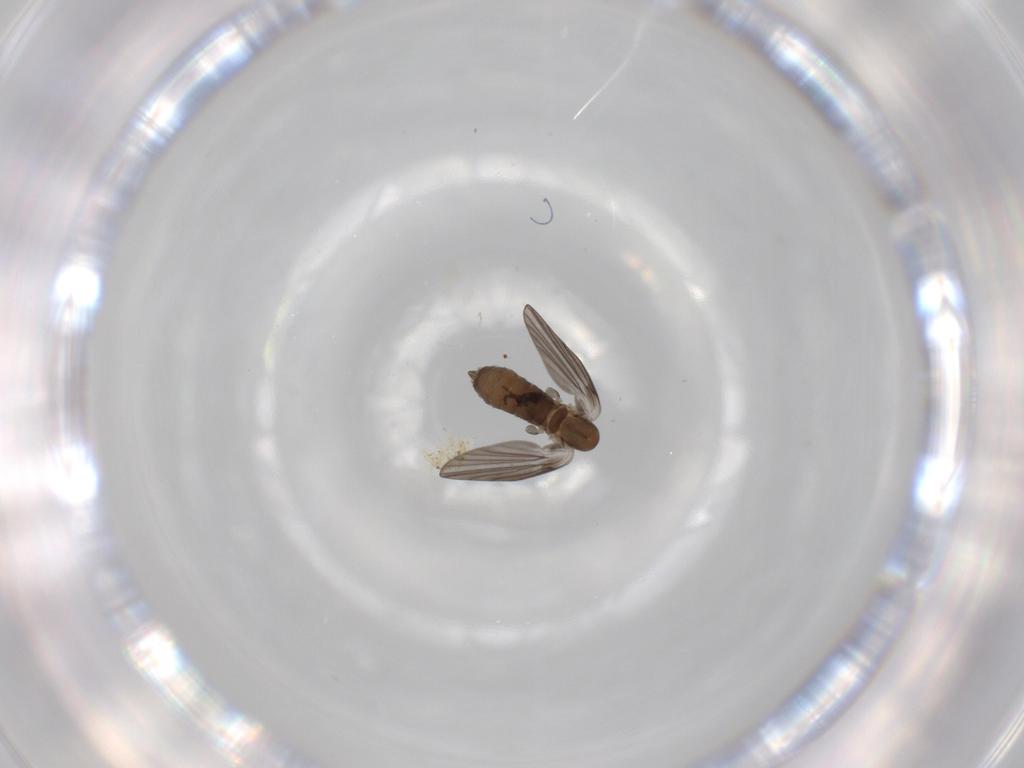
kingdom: Animalia
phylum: Arthropoda
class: Insecta
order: Diptera
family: Psychodidae
